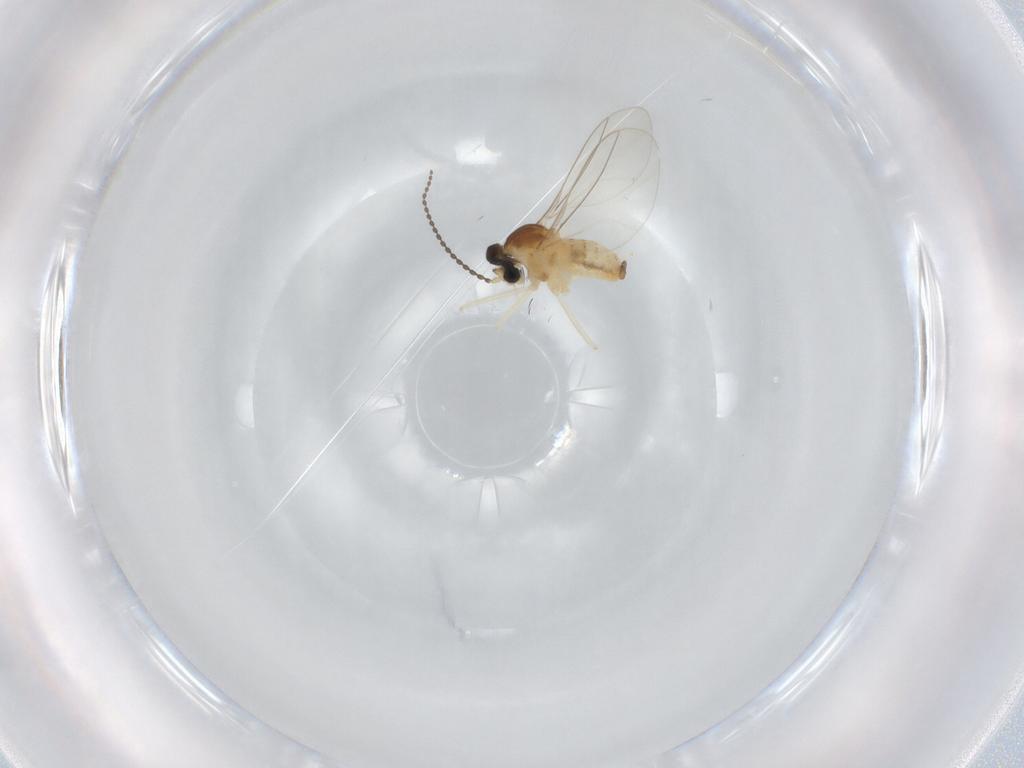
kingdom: Animalia
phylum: Arthropoda
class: Insecta
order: Diptera
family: Cecidomyiidae
